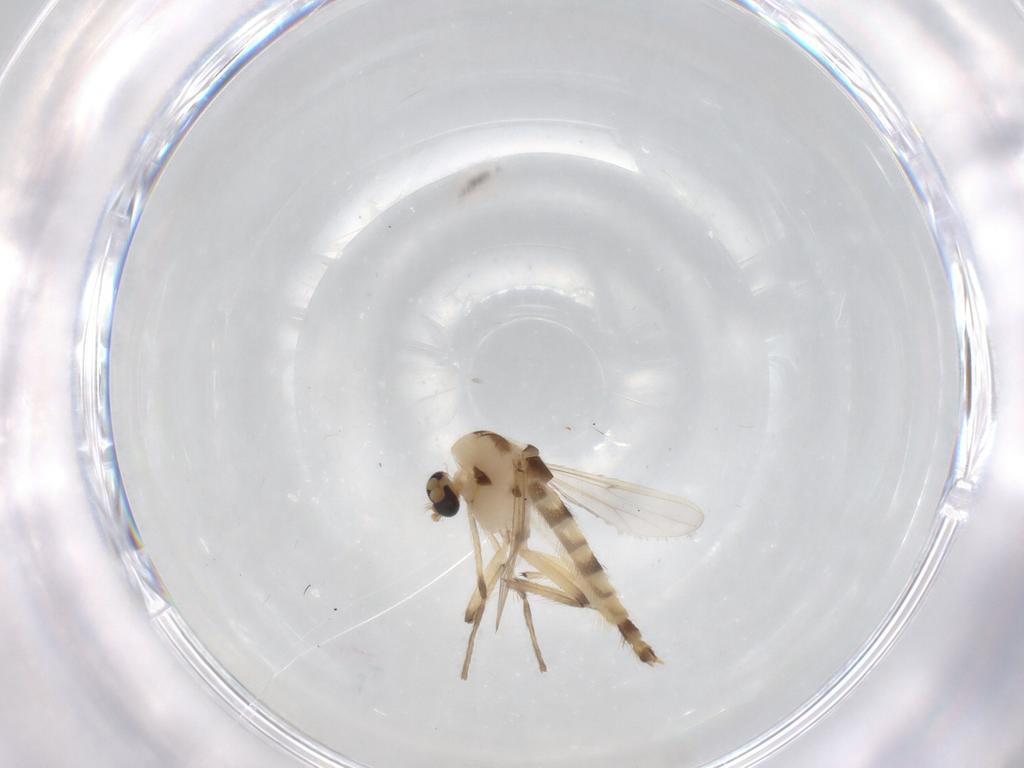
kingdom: Animalia
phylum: Arthropoda
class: Insecta
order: Diptera
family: Chironomidae
